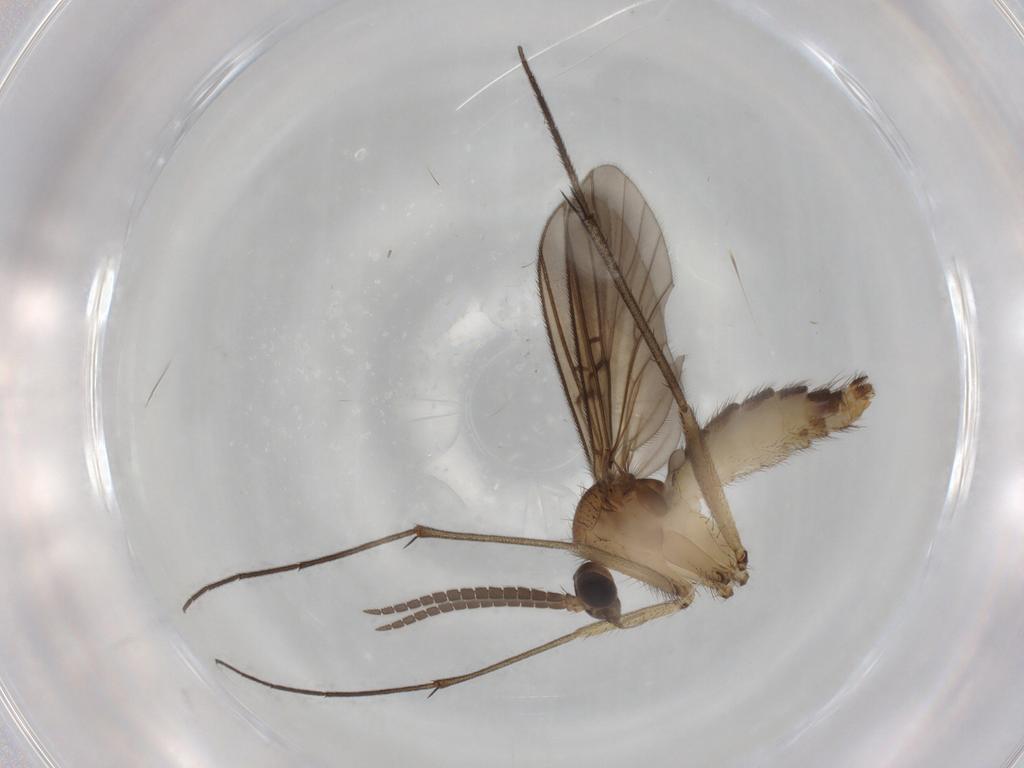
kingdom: Animalia
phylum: Arthropoda
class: Insecta
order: Diptera
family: Mycetophilidae
